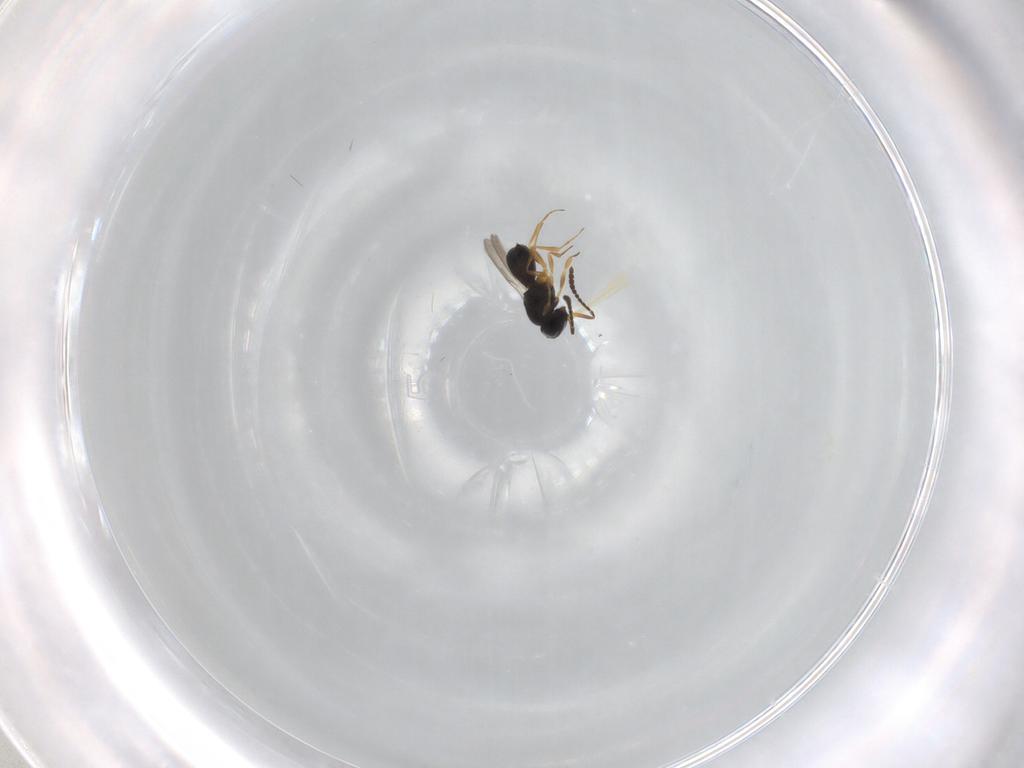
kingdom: Animalia
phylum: Arthropoda
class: Insecta
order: Hymenoptera
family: Scelionidae
